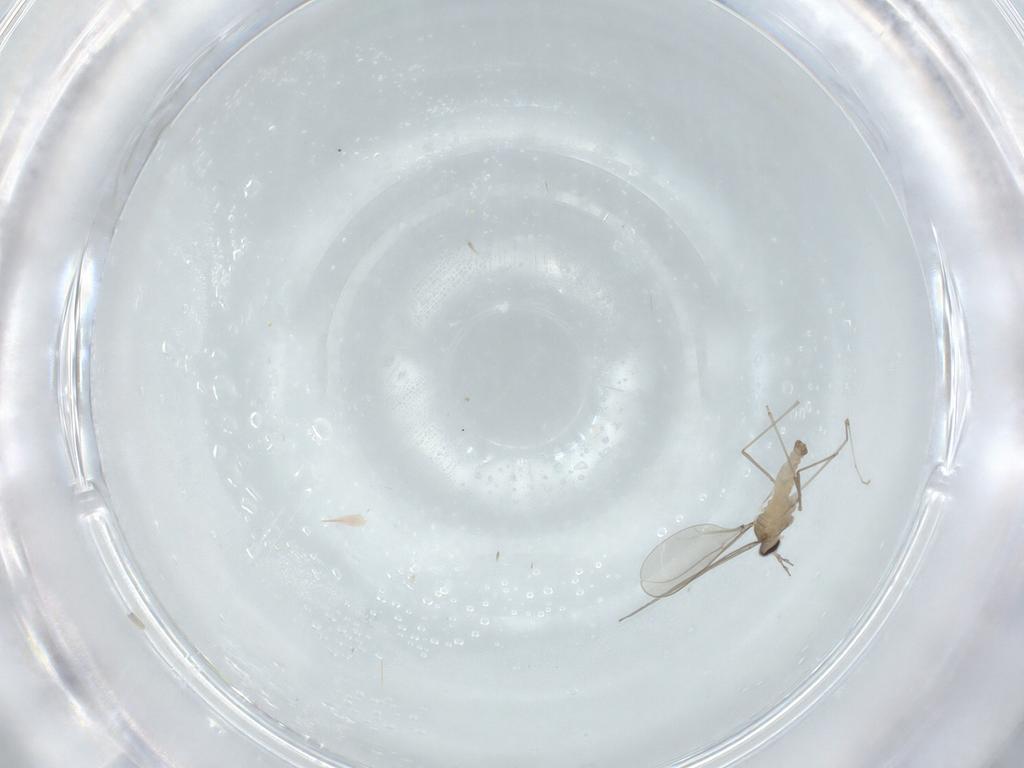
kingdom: Animalia
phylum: Arthropoda
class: Insecta
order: Diptera
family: Cecidomyiidae
